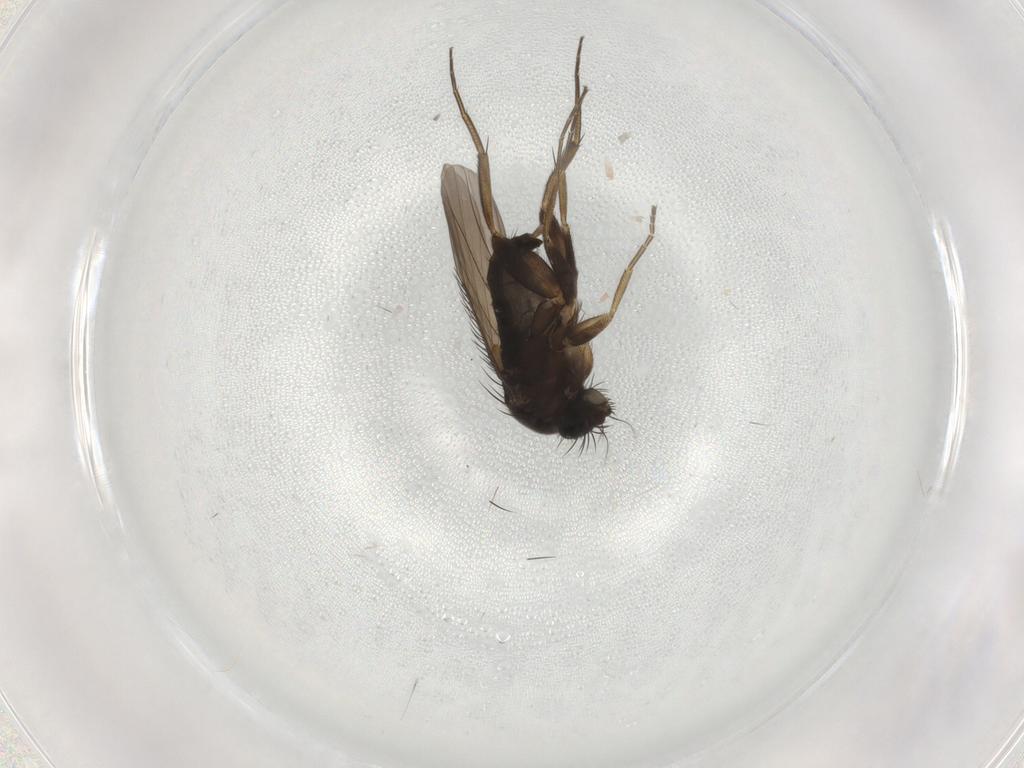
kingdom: Animalia
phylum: Arthropoda
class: Insecta
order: Diptera
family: Phoridae
